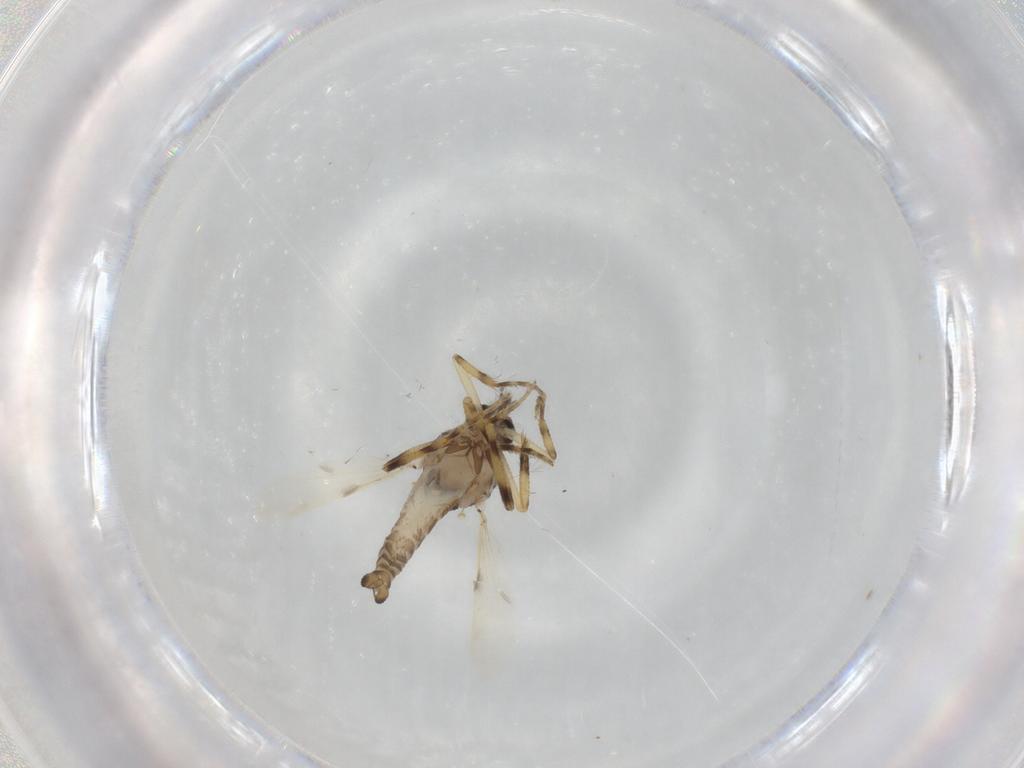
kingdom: Animalia
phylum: Arthropoda
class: Insecta
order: Diptera
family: Ceratopogonidae
